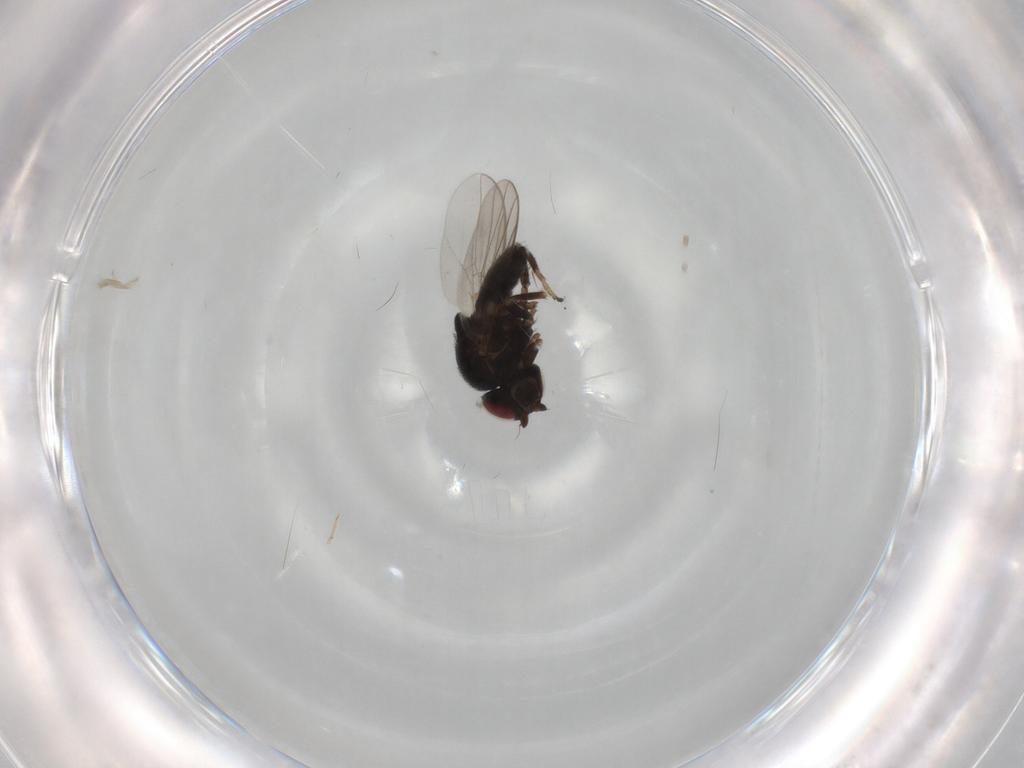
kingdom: Animalia
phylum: Arthropoda
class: Insecta
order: Diptera
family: Chloropidae
